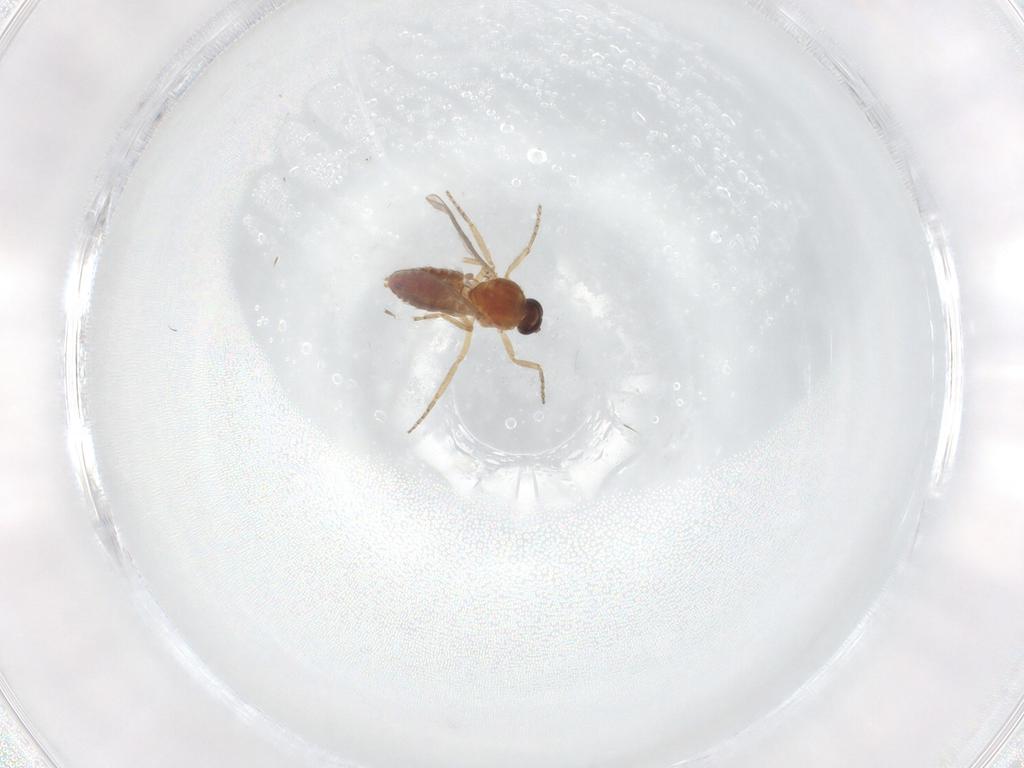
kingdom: Animalia
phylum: Arthropoda
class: Insecta
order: Diptera
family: Ceratopogonidae
